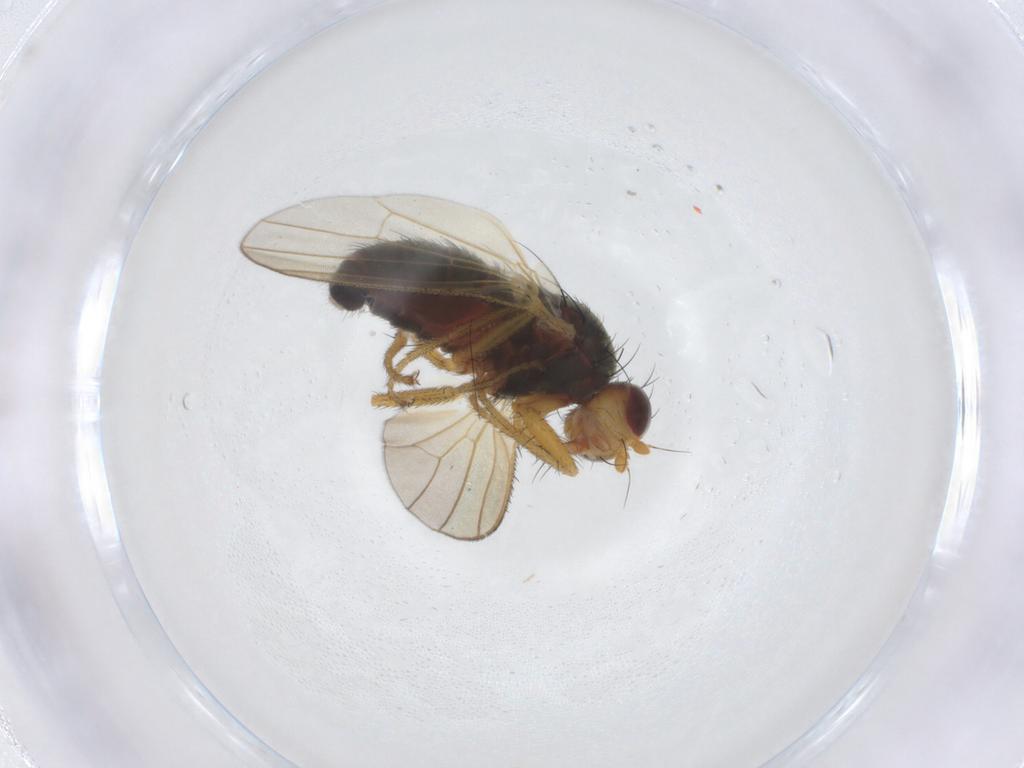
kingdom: Animalia
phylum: Arthropoda
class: Insecta
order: Diptera
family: Heleomyzidae
